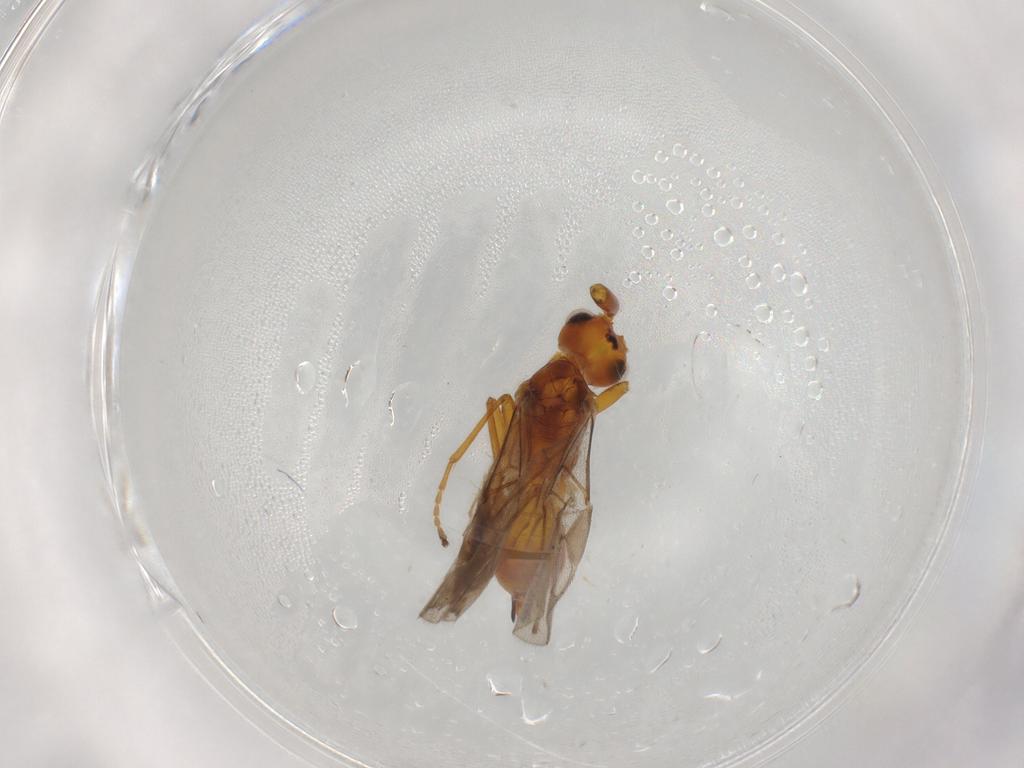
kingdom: Animalia
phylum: Arthropoda
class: Insecta
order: Hymenoptera
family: Braconidae
